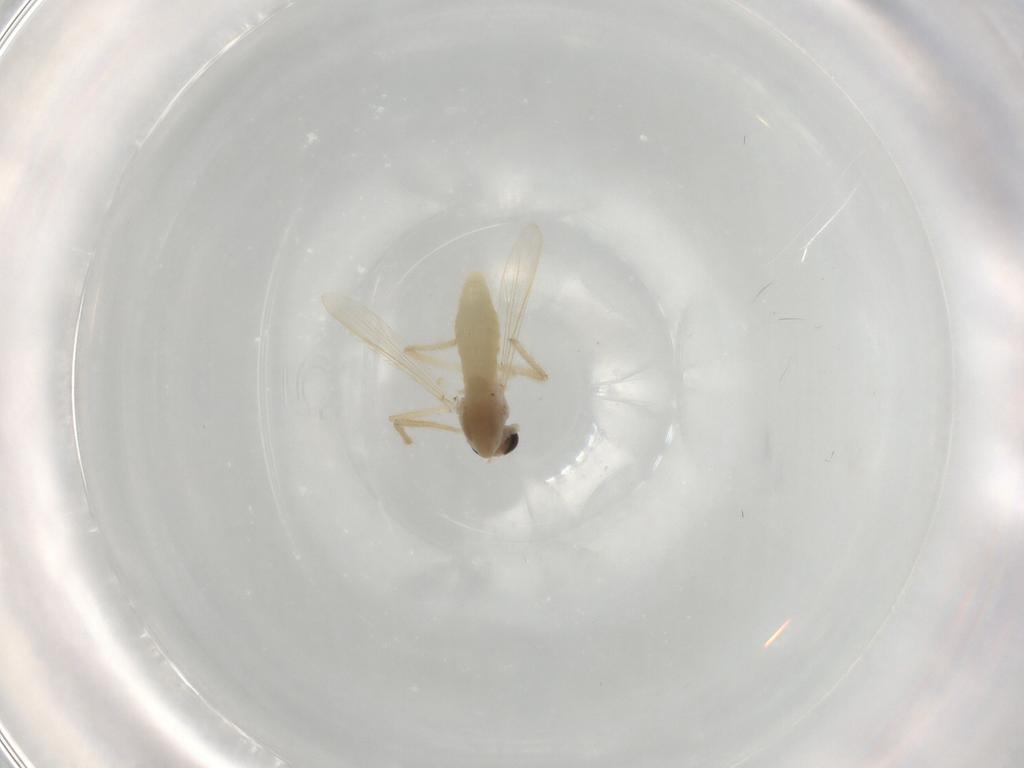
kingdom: Animalia
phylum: Arthropoda
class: Insecta
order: Diptera
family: Chironomidae
